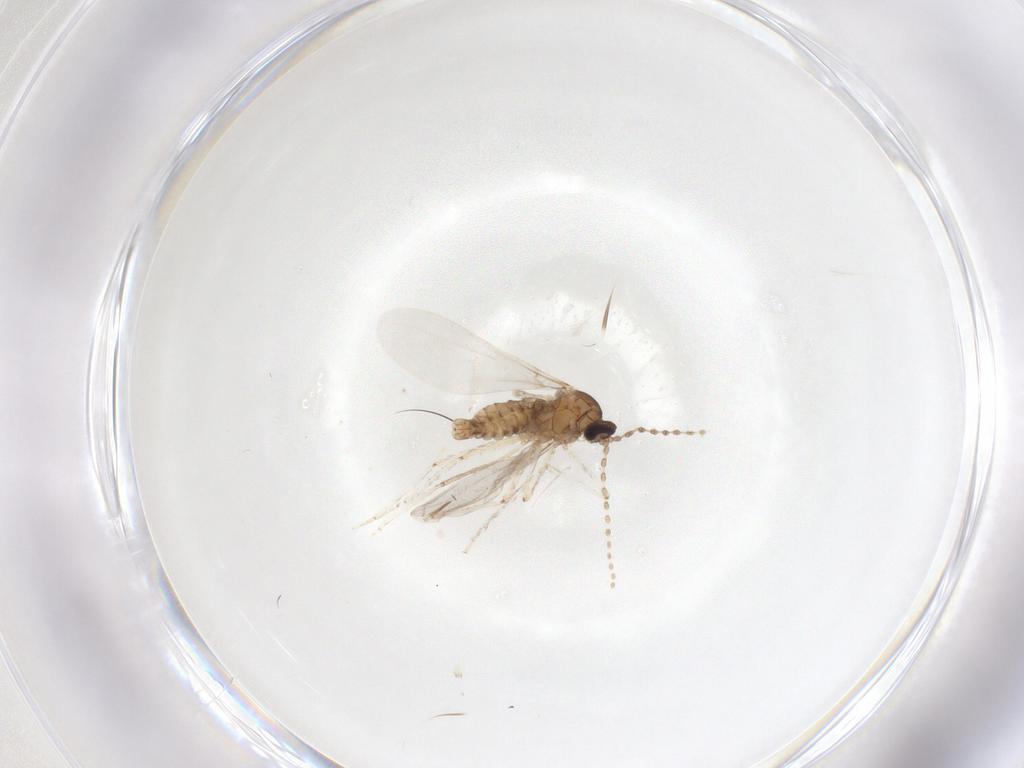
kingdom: Animalia
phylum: Arthropoda
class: Insecta
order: Diptera
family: Cecidomyiidae
